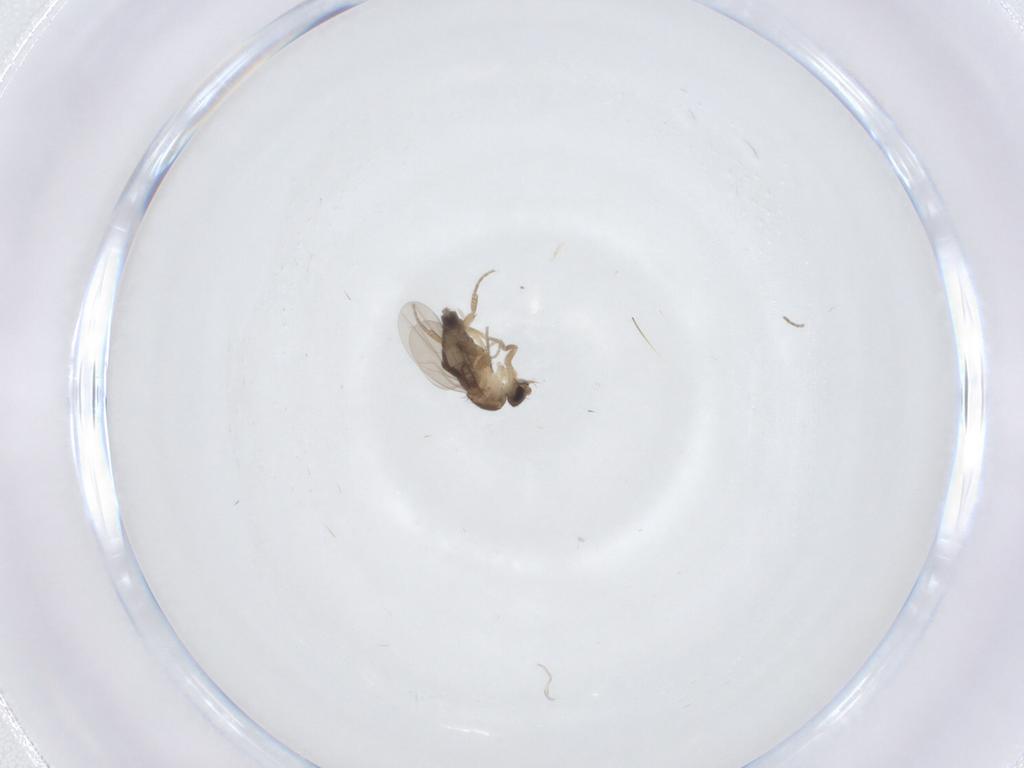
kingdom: Animalia
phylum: Arthropoda
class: Insecta
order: Diptera
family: Phoridae
